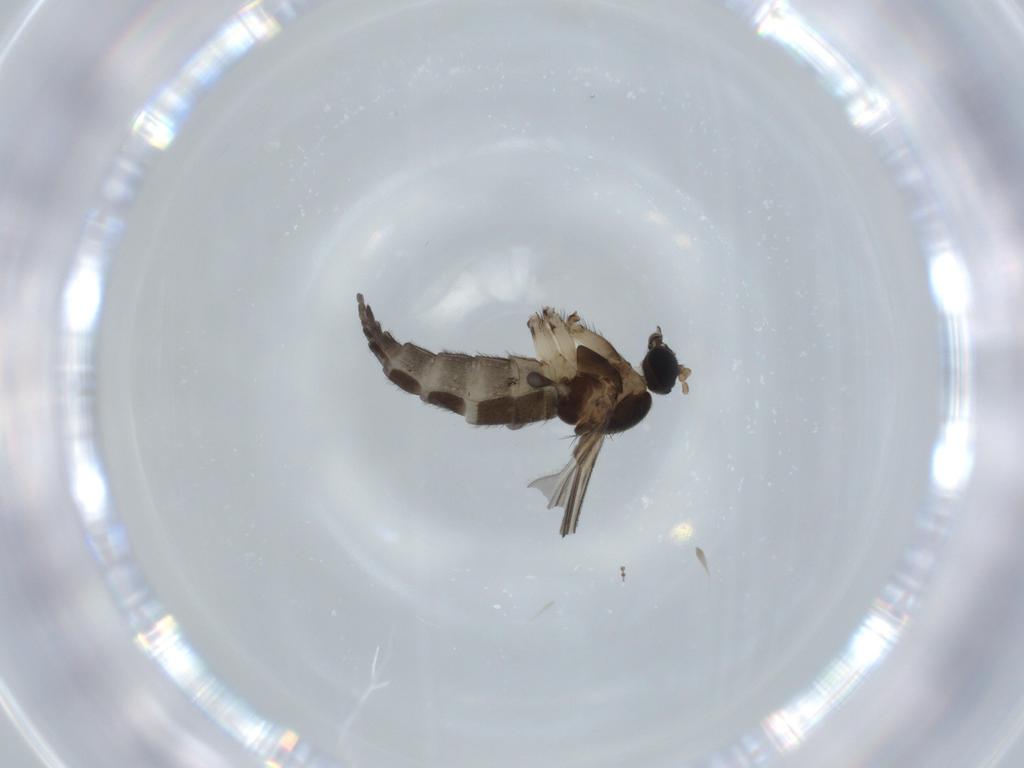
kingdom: Animalia
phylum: Arthropoda
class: Insecta
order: Diptera
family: Sciaridae
